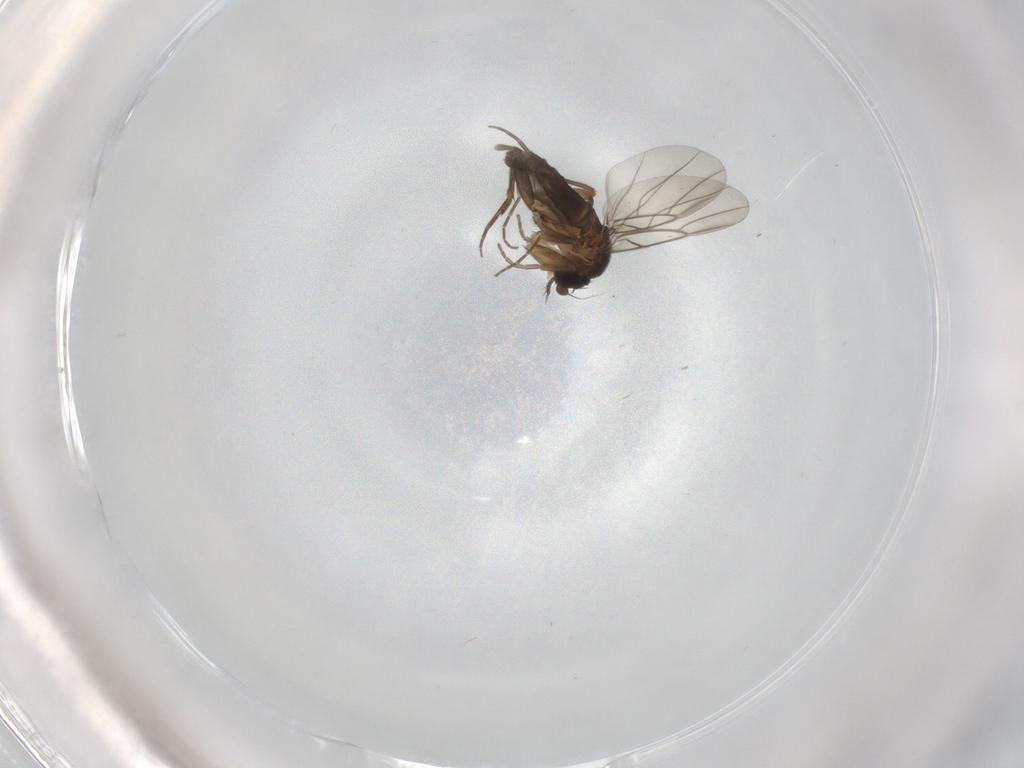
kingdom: Animalia
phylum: Arthropoda
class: Insecta
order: Diptera
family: Phoridae
